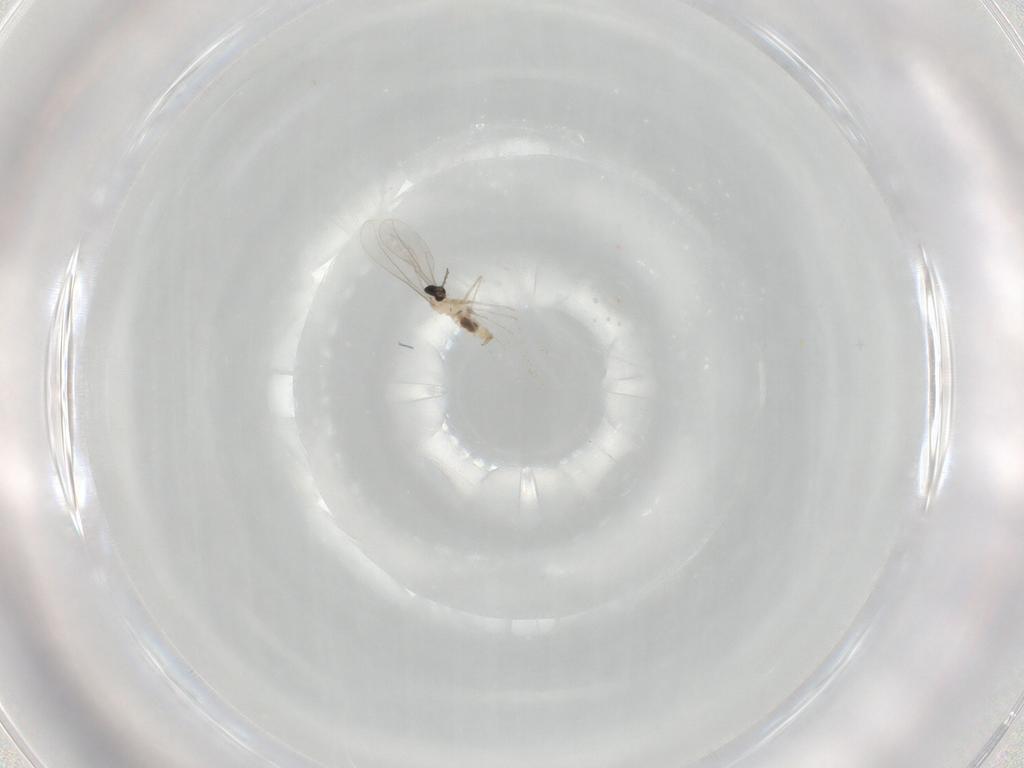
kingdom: Animalia
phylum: Arthropoda
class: Insecta
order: Diptera
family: Cecidomyiidae
